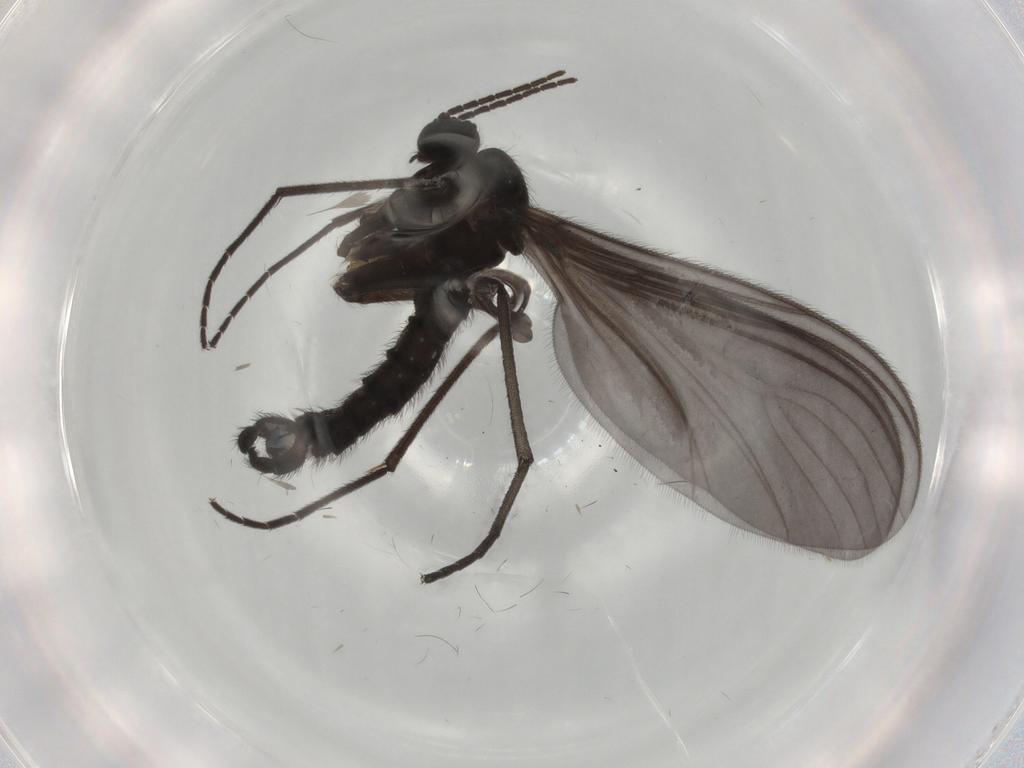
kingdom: Animalia
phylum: Arthropoda
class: Insecta
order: Diptera
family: Sciaridae
